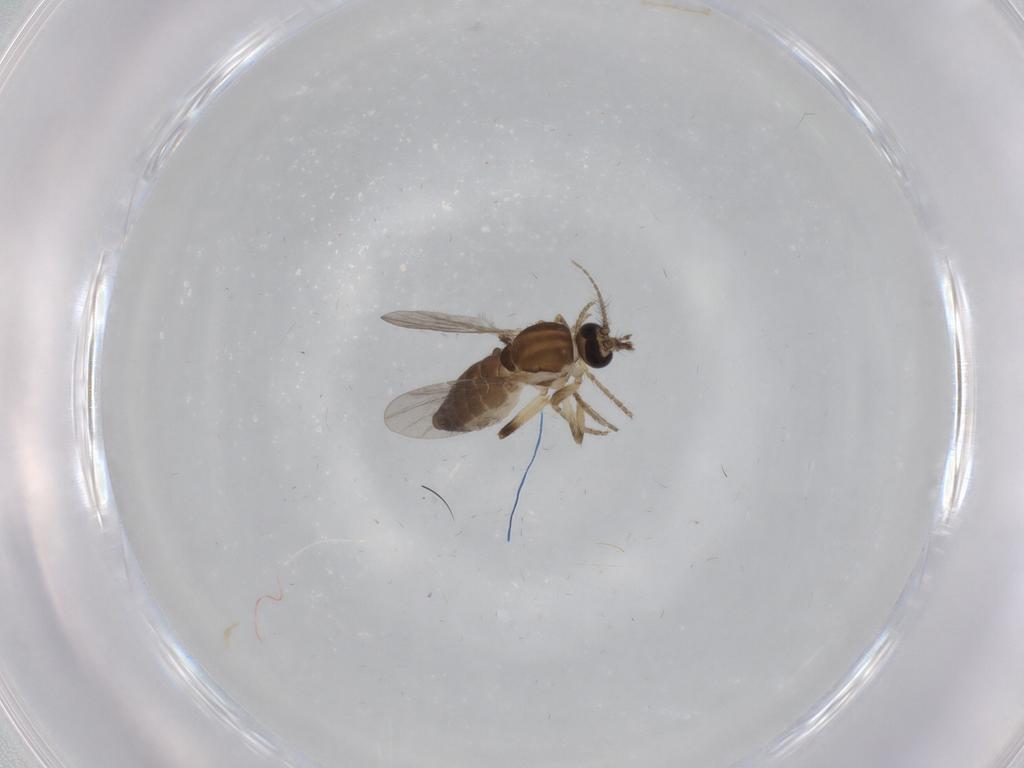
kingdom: Animalia
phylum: Arthropoda
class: Insecta
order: Diptera
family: Ceratopogonidae
